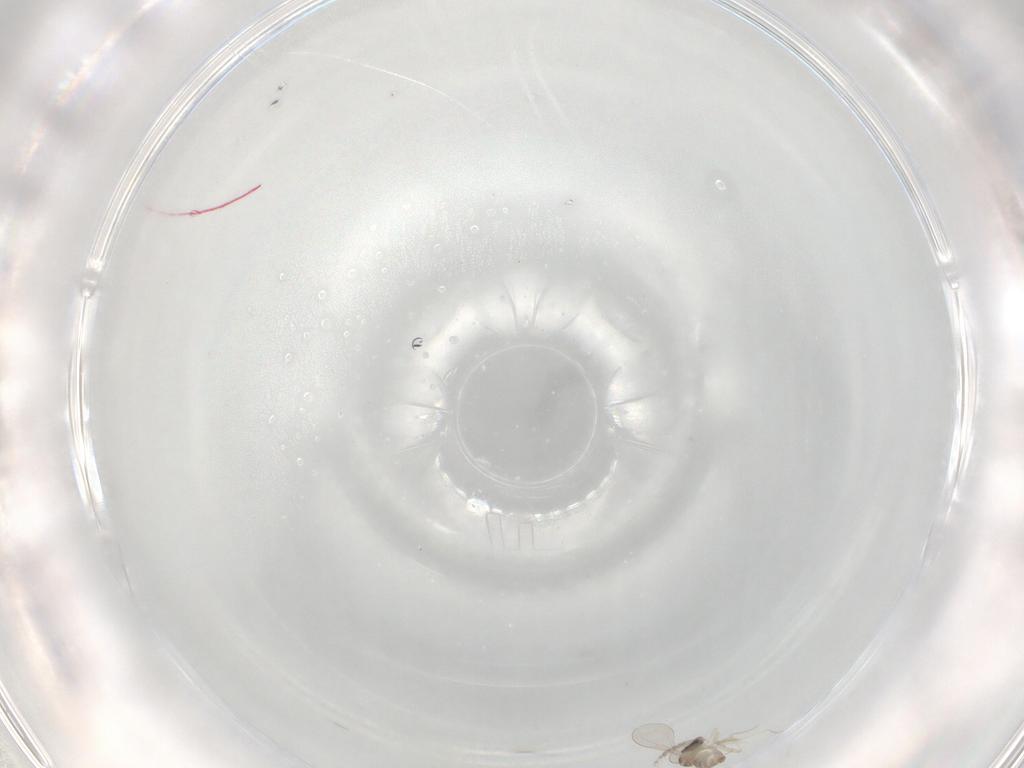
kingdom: Animalia
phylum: Arthropoda
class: Insecta
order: Diptera
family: Cecidomyiidae
